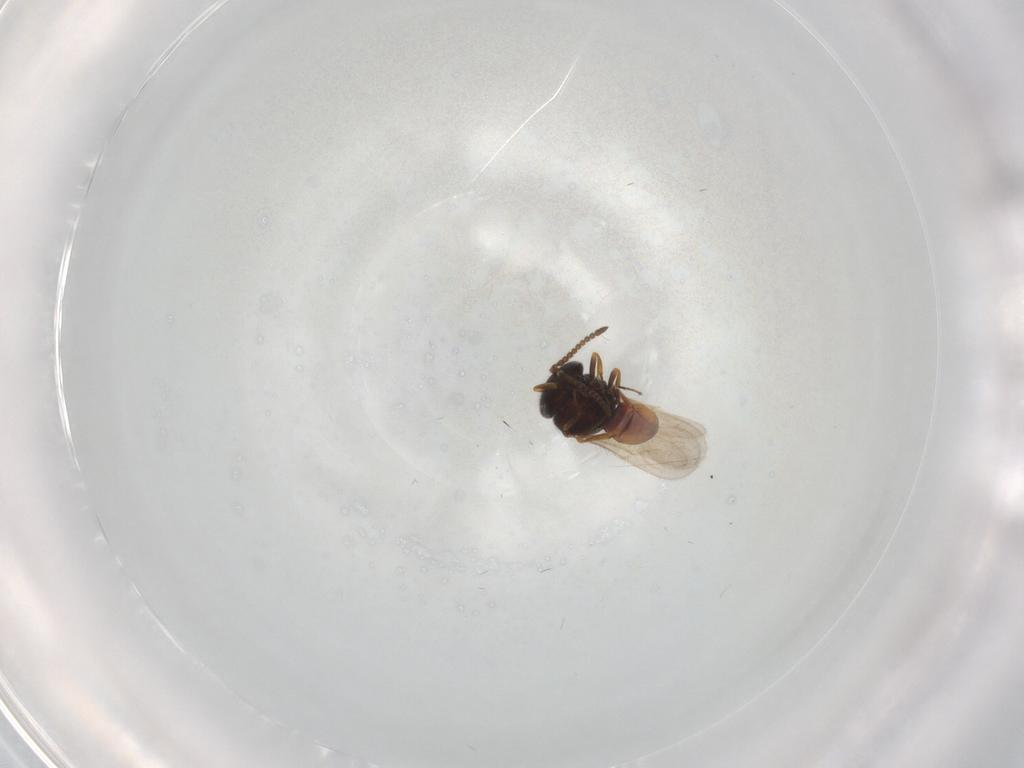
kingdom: Animalia
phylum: Arthropoda
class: Insecta
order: Hymenoptera
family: Scelionidae
